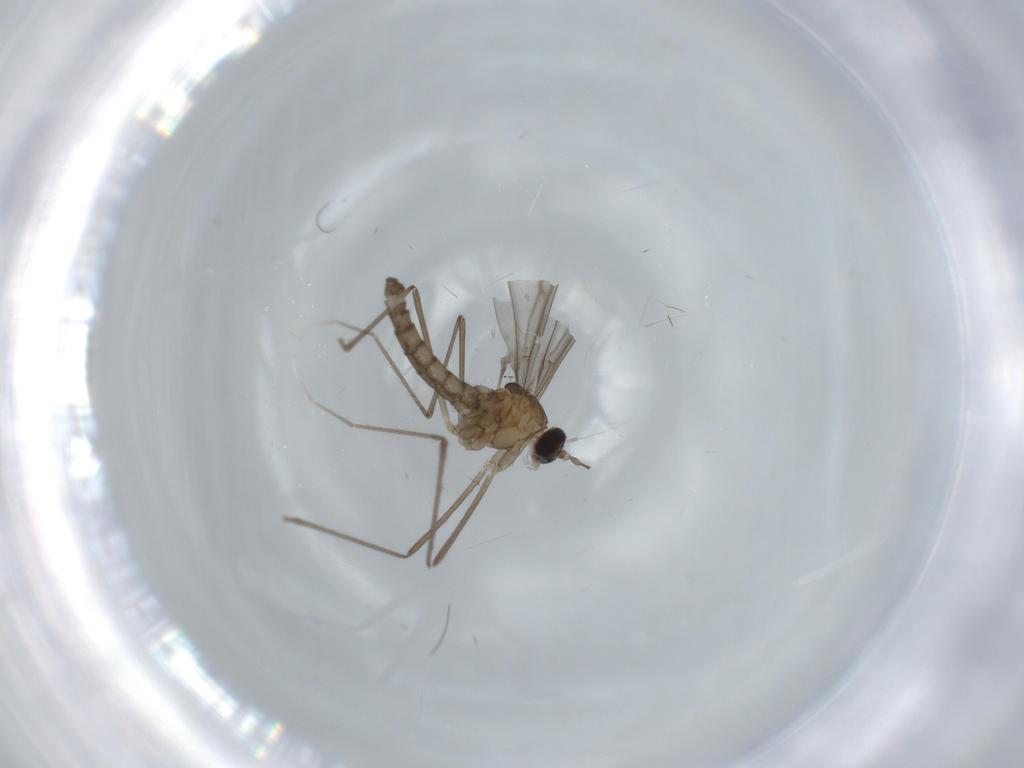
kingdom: Animalia
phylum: Arthropoda
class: Insecta
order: Diptera
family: Cecidomyiidae
